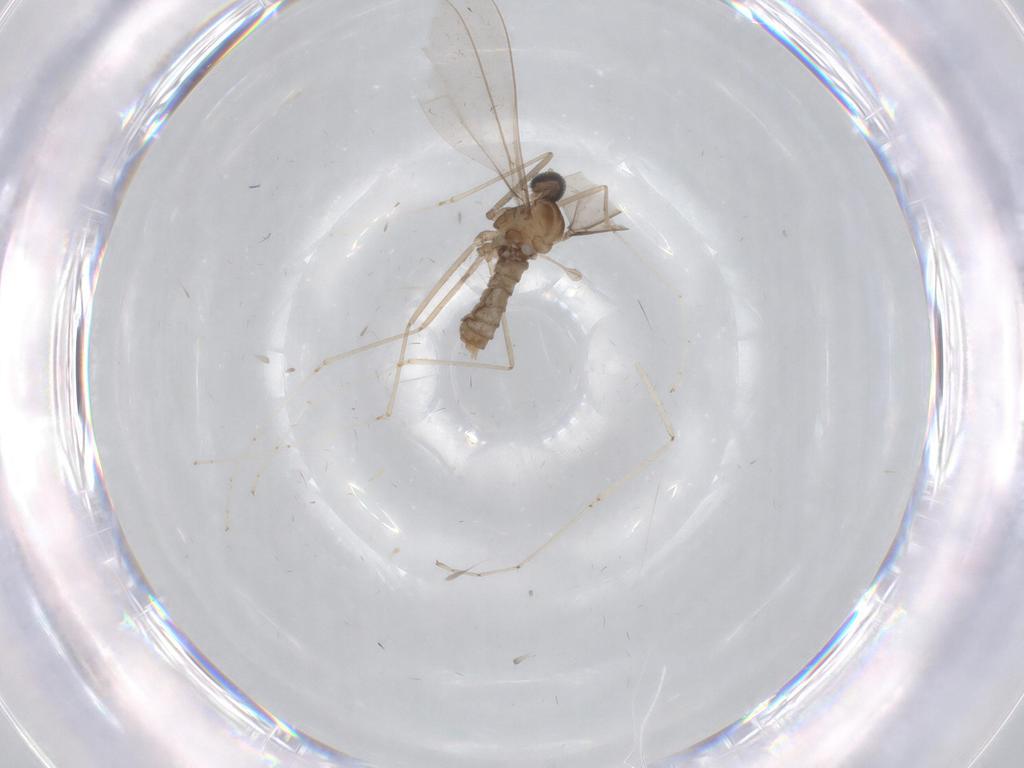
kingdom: Animalia
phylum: Arthropoda
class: Insecta
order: Diptera
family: Cecidomyiidae
